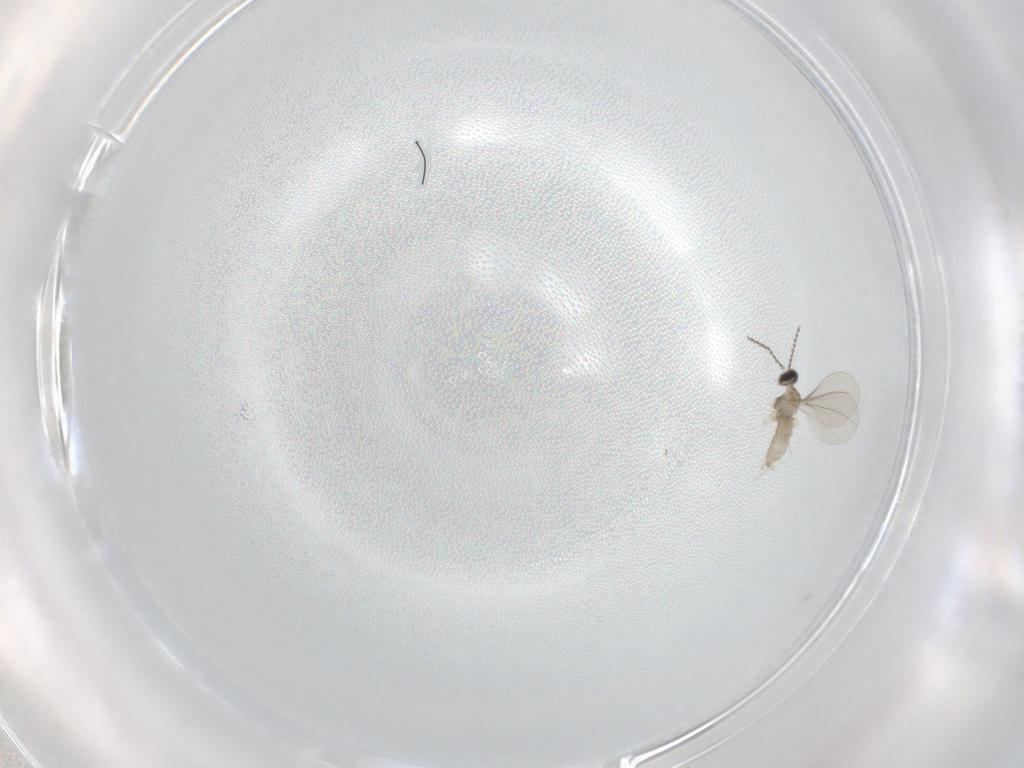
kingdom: Animalia
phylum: Arthropoda
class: Insecta
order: Diptera
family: Cecidomyiidae
